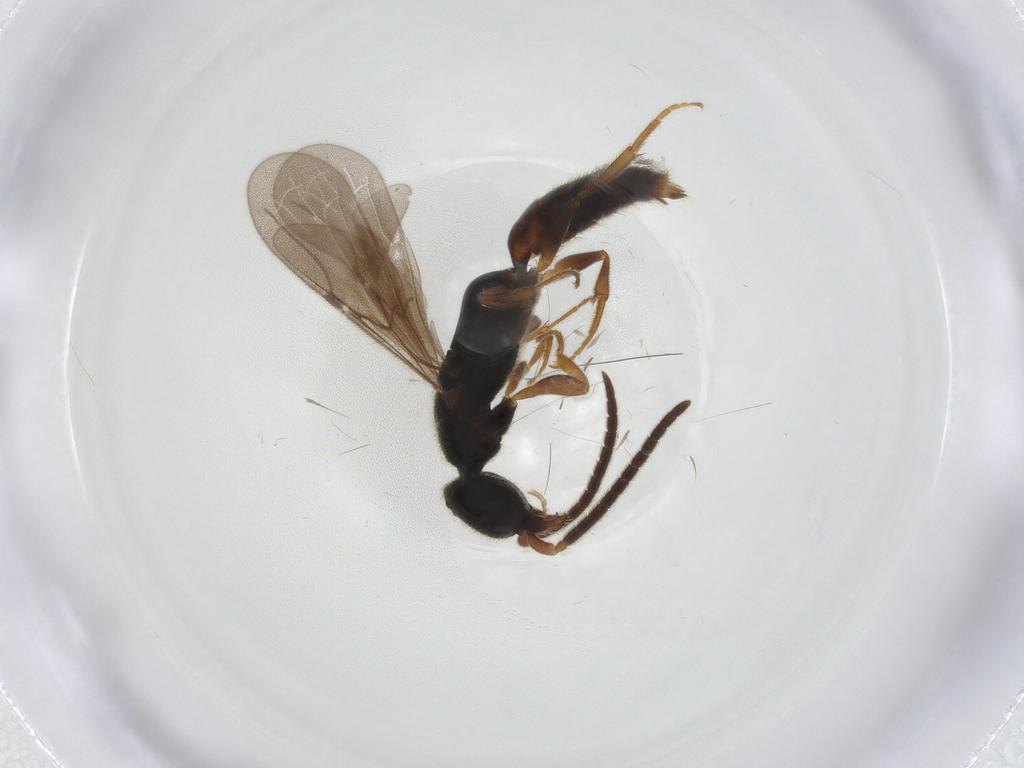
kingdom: Animalia
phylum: Arthropoda
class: Insecta
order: Hymenoptera
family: Bethylidae
